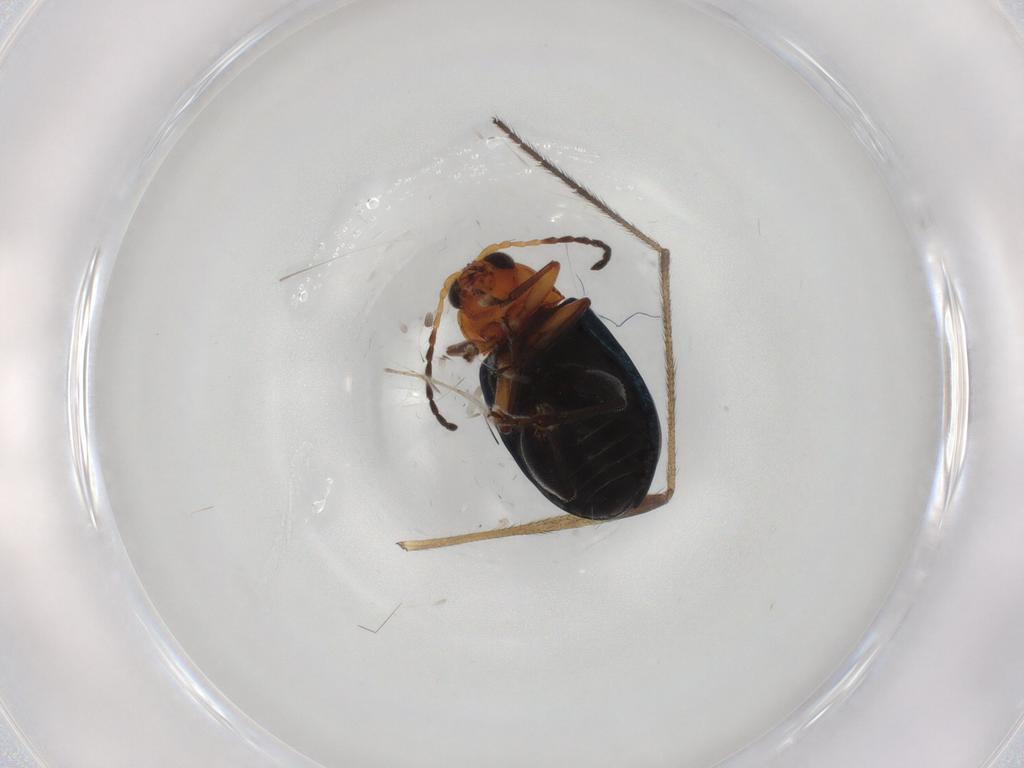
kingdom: Animalia
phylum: Arthropoda
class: Insecta
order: Coleoptera
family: Chrysomelidae
